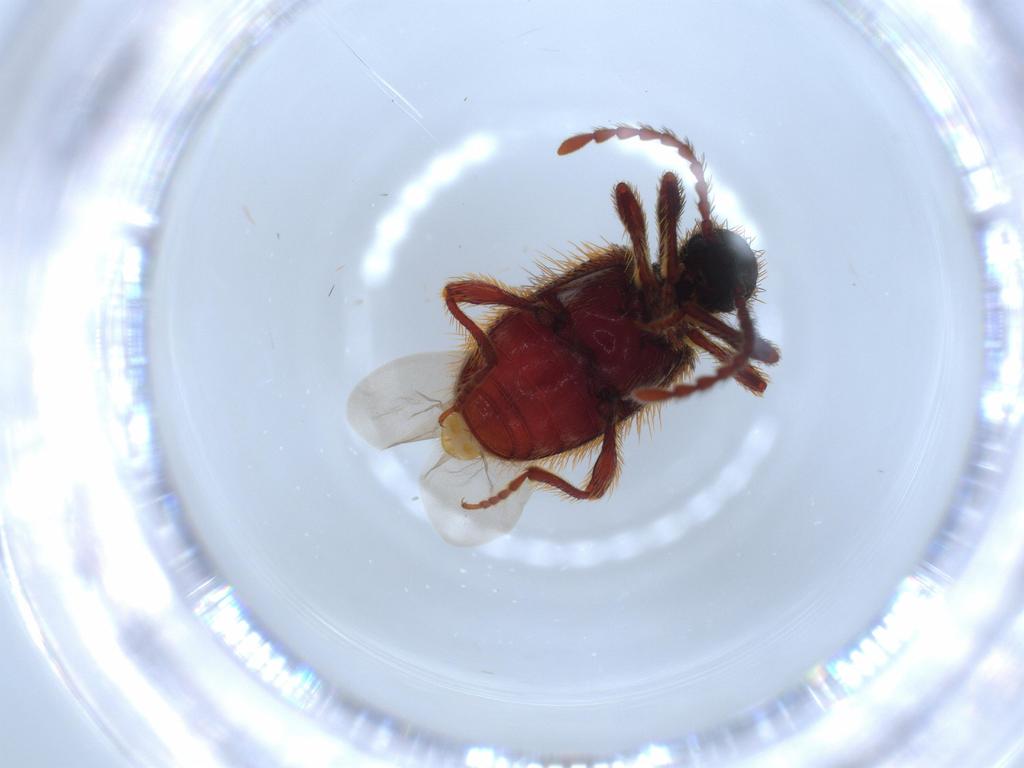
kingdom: Animalia
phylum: Arthropoda
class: Insecta
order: Coleoptera
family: Ptinidae
